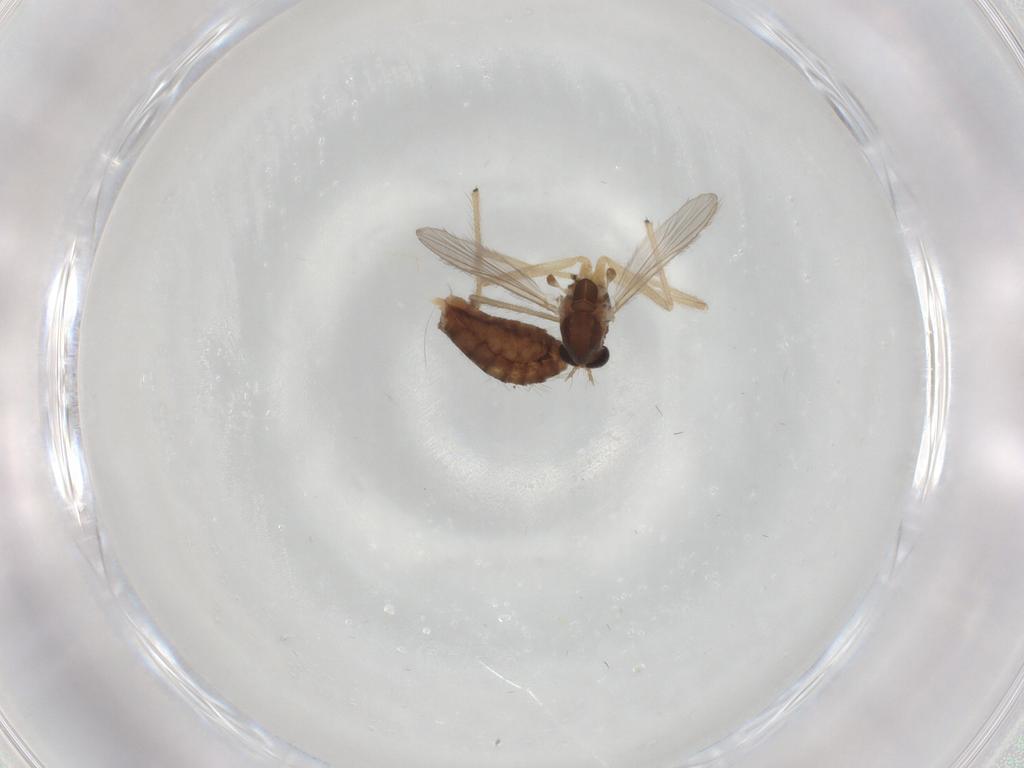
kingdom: Animalia
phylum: Arthropoda
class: Insecta
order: Diptera
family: Chironomidae
